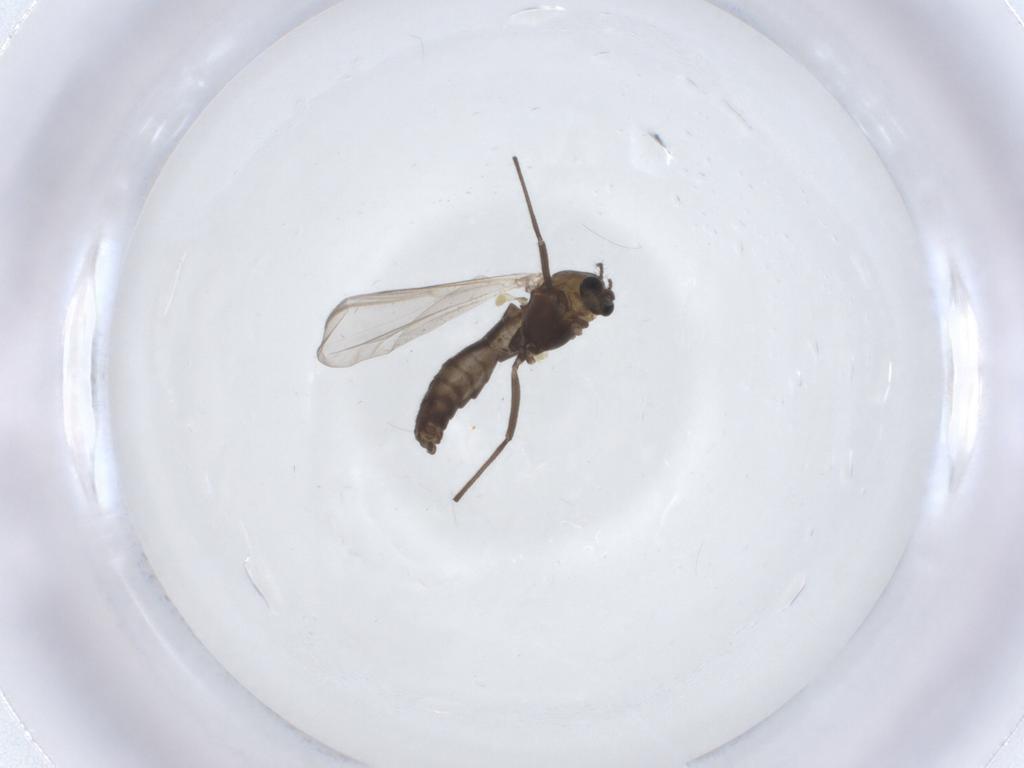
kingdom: Animalia
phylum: Arthropoda
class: Insecta
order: Diptera
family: Chironomidae
